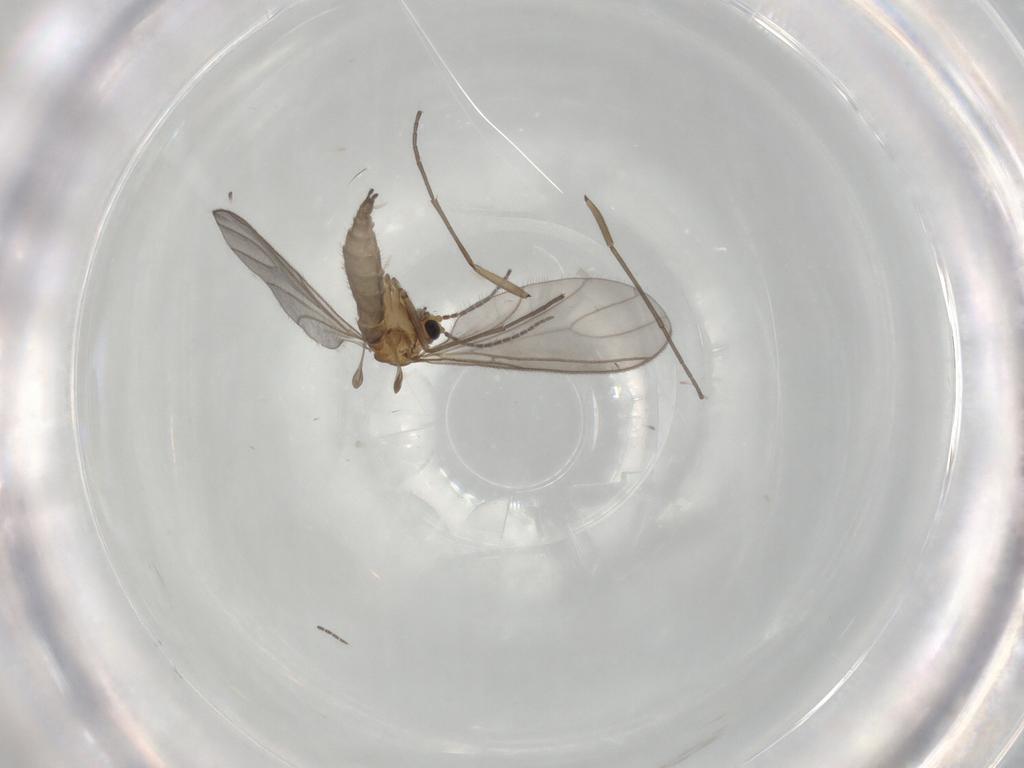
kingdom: Animalia
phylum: Arthropoda
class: Insecta
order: Diptera
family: Sciaridae
